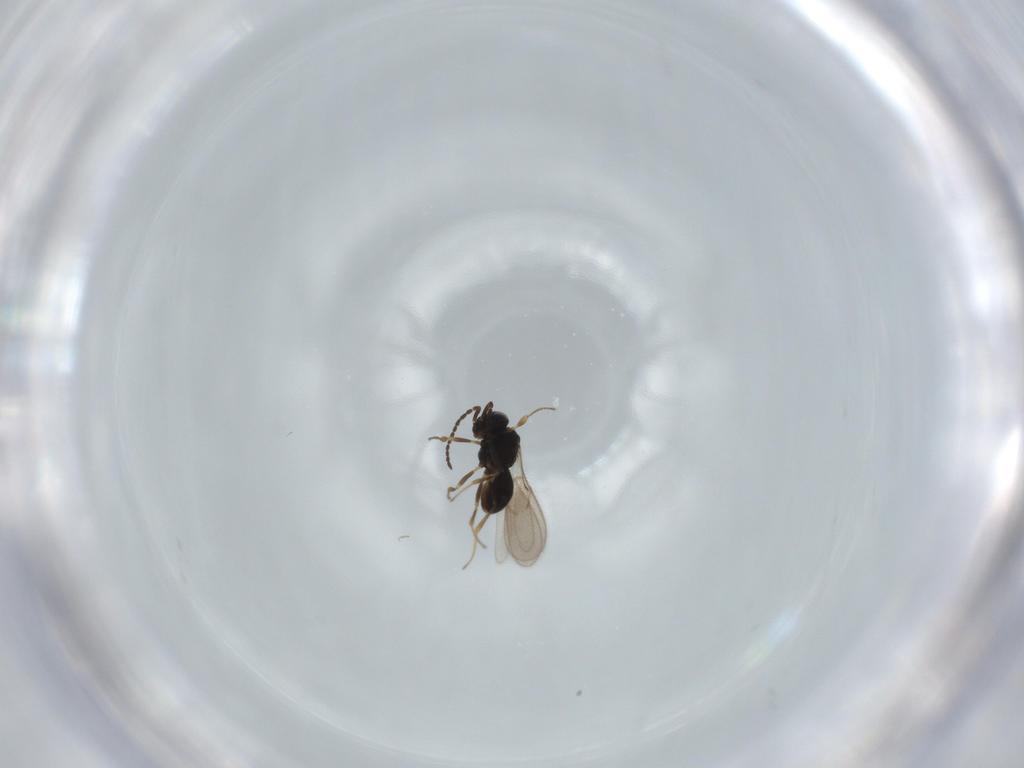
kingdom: Animalia
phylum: Arthropoda
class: Insecta
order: Hymenoptera
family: Scelionidae
